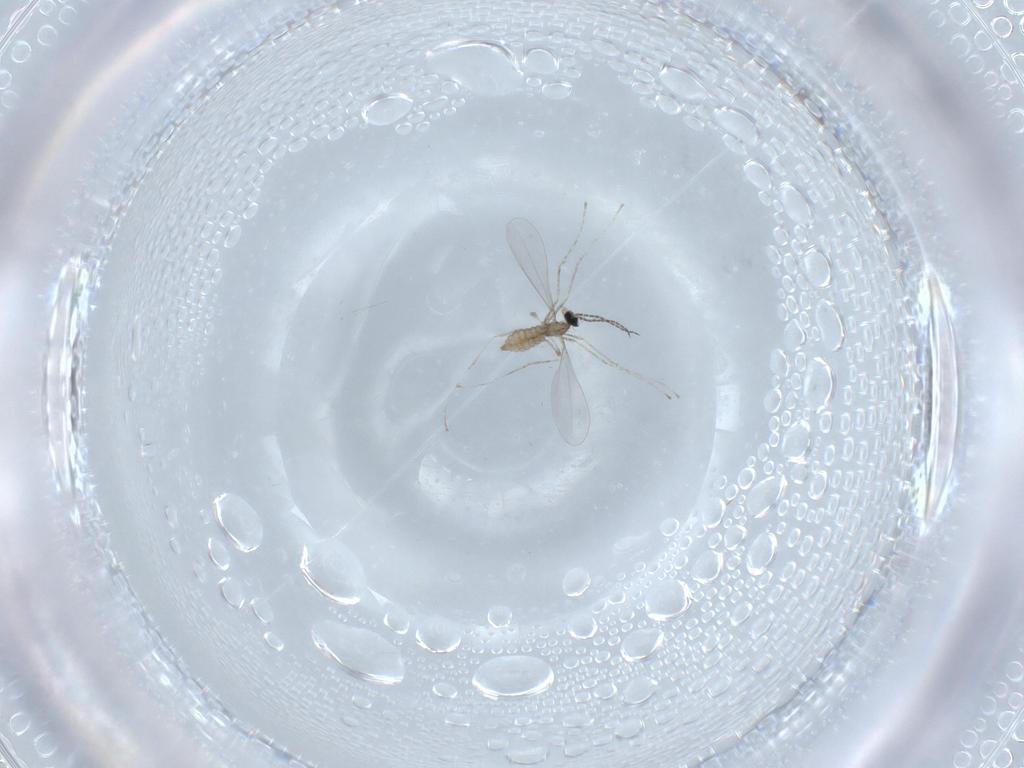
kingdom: Animalia
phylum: Arthropoda
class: Insecta
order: Diptera
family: Cecidomyiidae
